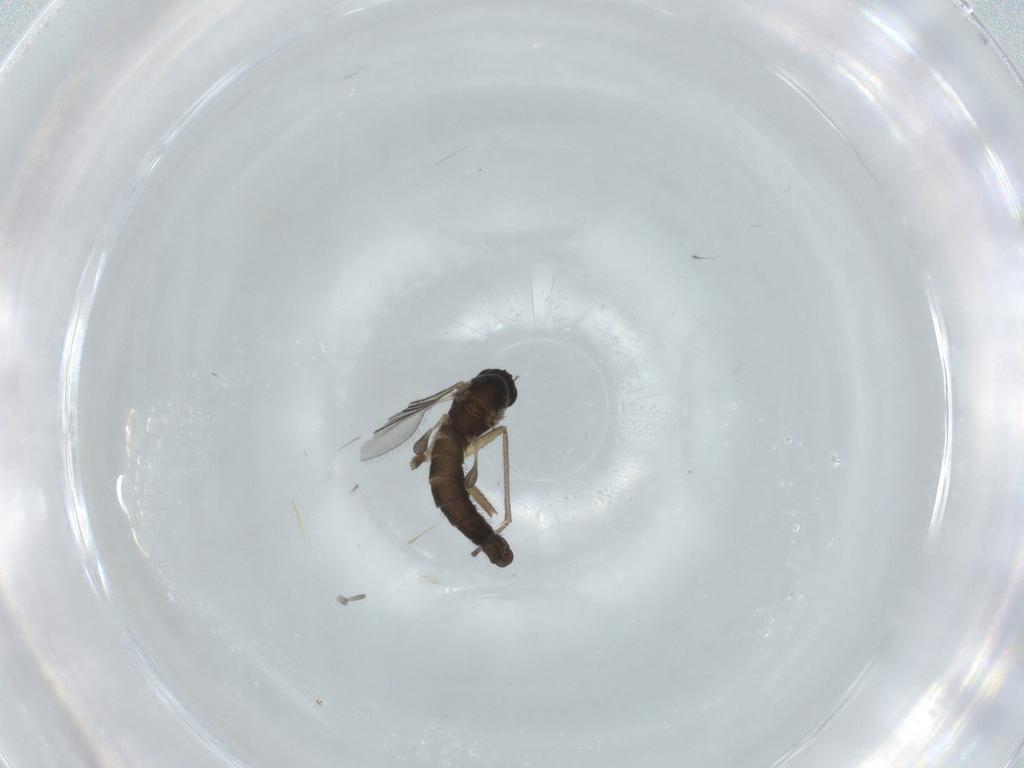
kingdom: Animalia
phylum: Arthropoda
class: Insecta
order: Diptera
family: Sciaridae
